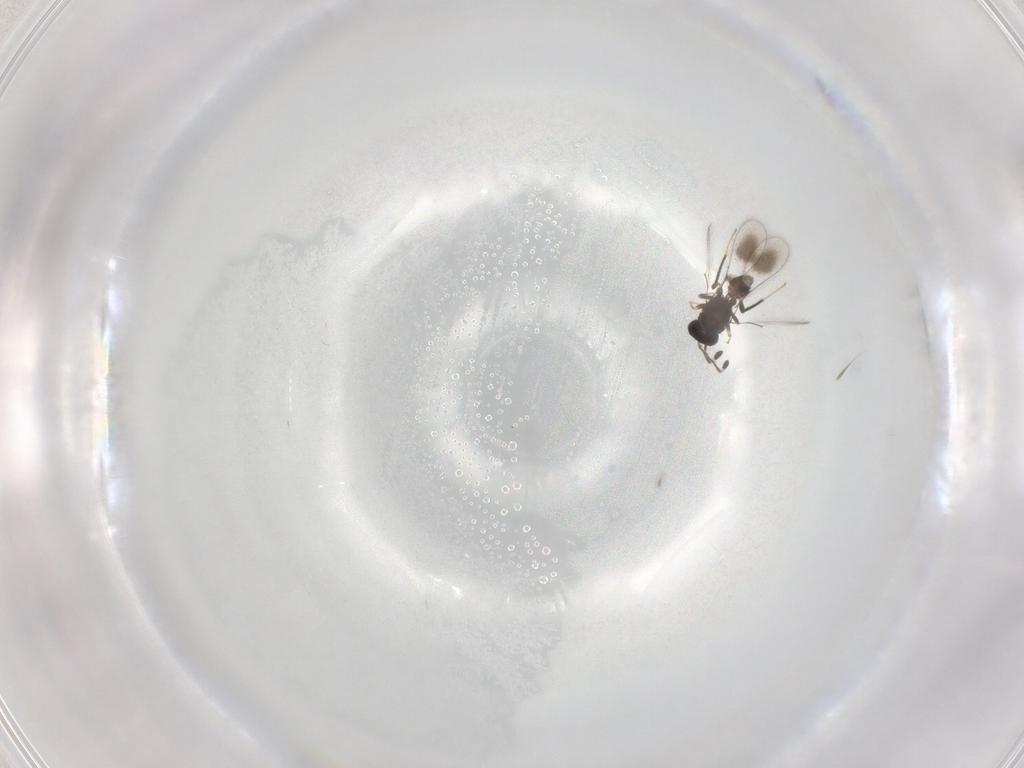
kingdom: Animalia
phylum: Arthropoda
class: Insecta
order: Hymenoptera
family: Mymaridae
